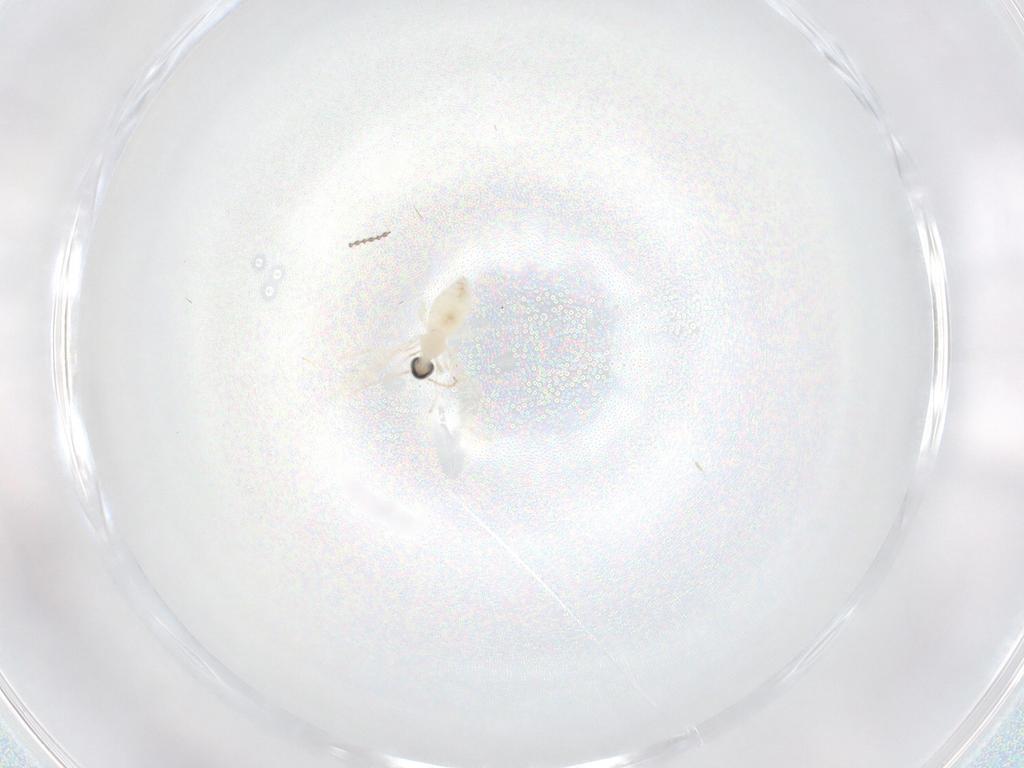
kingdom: Animalia
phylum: Arthropoda
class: Insecta
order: Diptera
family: Cecidomyiidae
